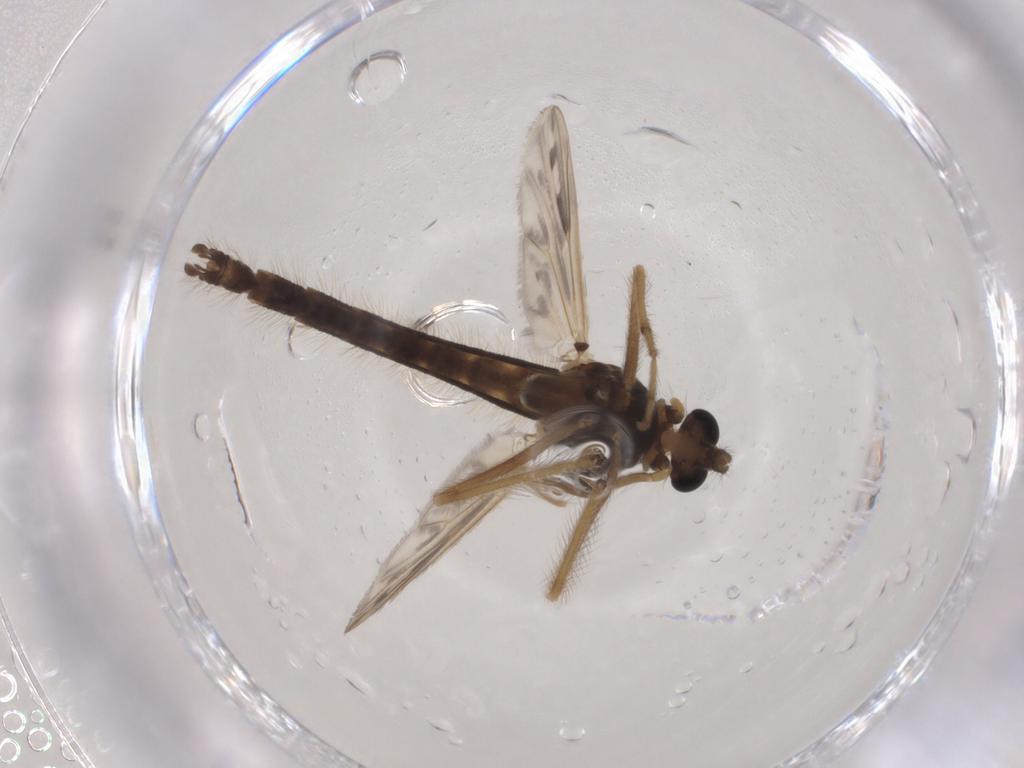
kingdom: Animalia
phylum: Arthropoda
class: Insecta
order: Diptera
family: Chironomidae
